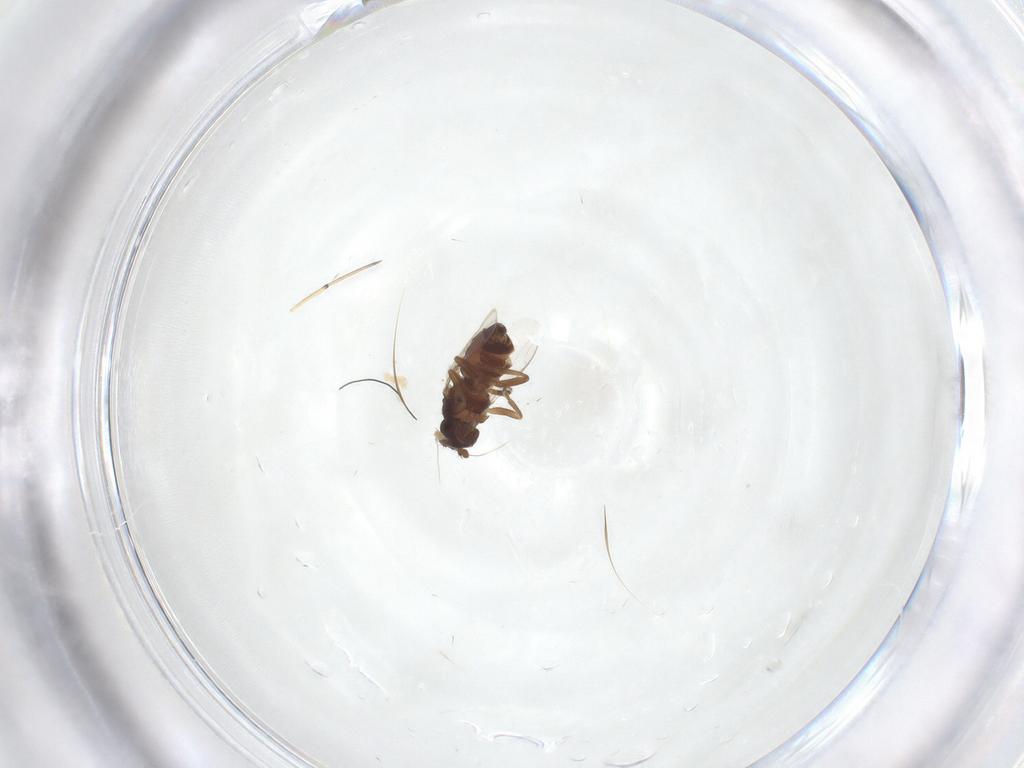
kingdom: Animalia
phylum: Arthropoda
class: Insecta
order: Diptera
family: Sphaeroceridae
